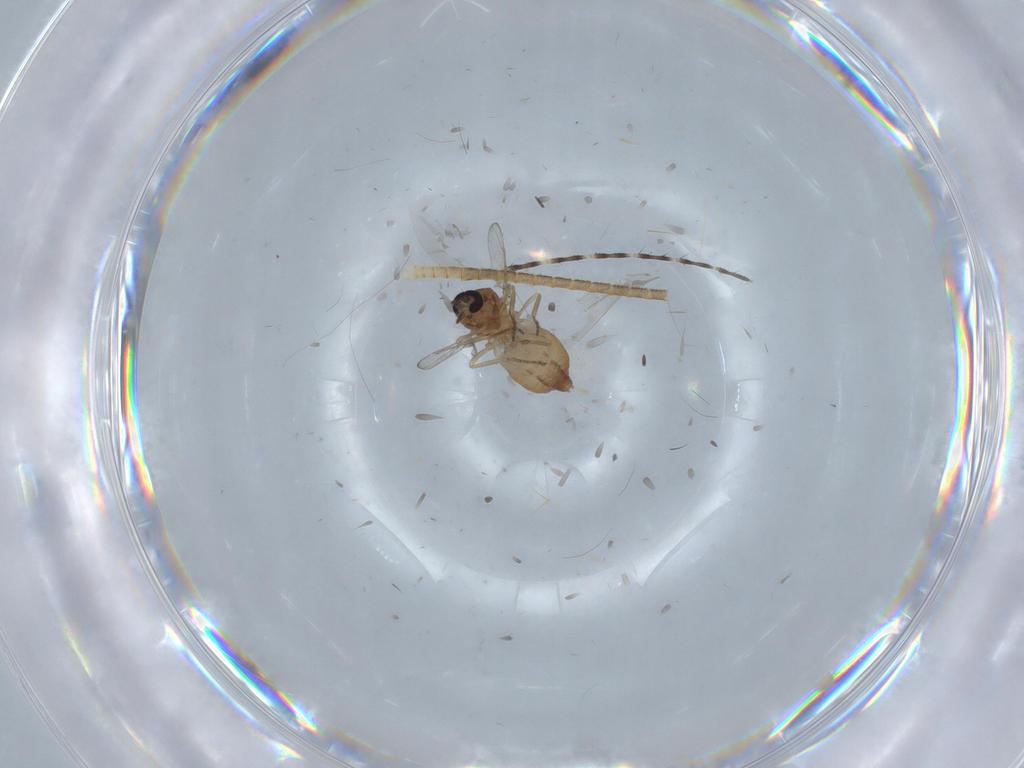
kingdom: Animalia
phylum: Arthropoda
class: Insecta
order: Diptera
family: Ceratopogonidae
